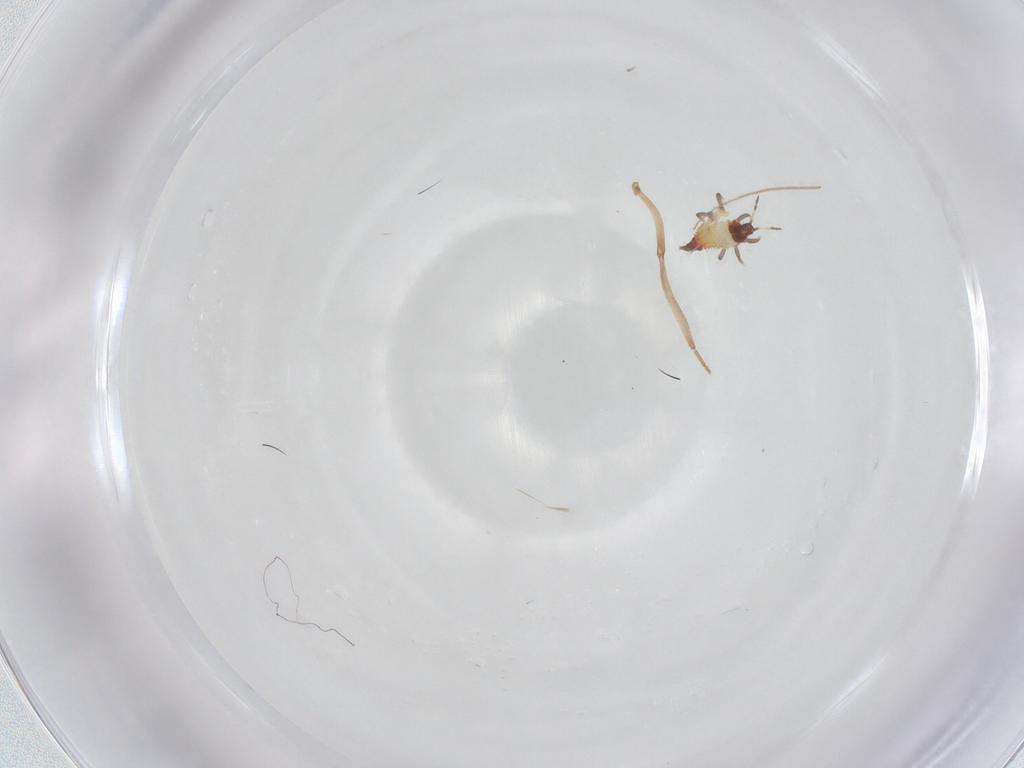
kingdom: Animalia
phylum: Arthropoda
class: Insecta
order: Thysanoptera
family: Phlaeothripidae
